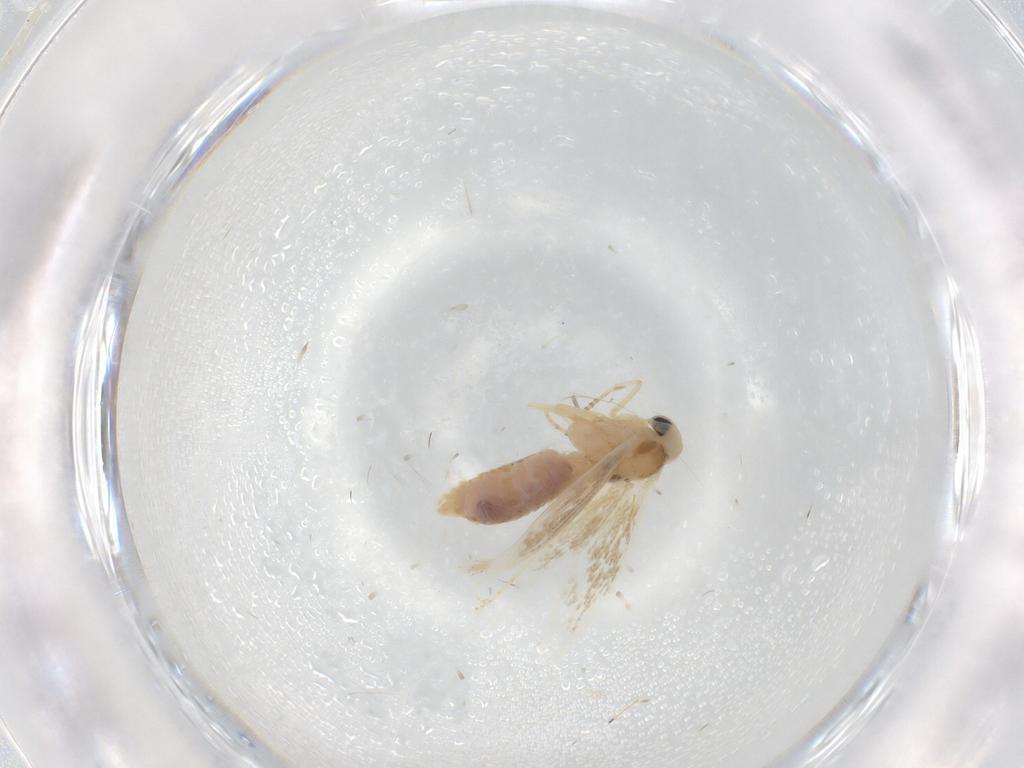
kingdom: Animalia
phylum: Arthropoda
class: Insecta
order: Lepidoptera
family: Bucculatricidae
